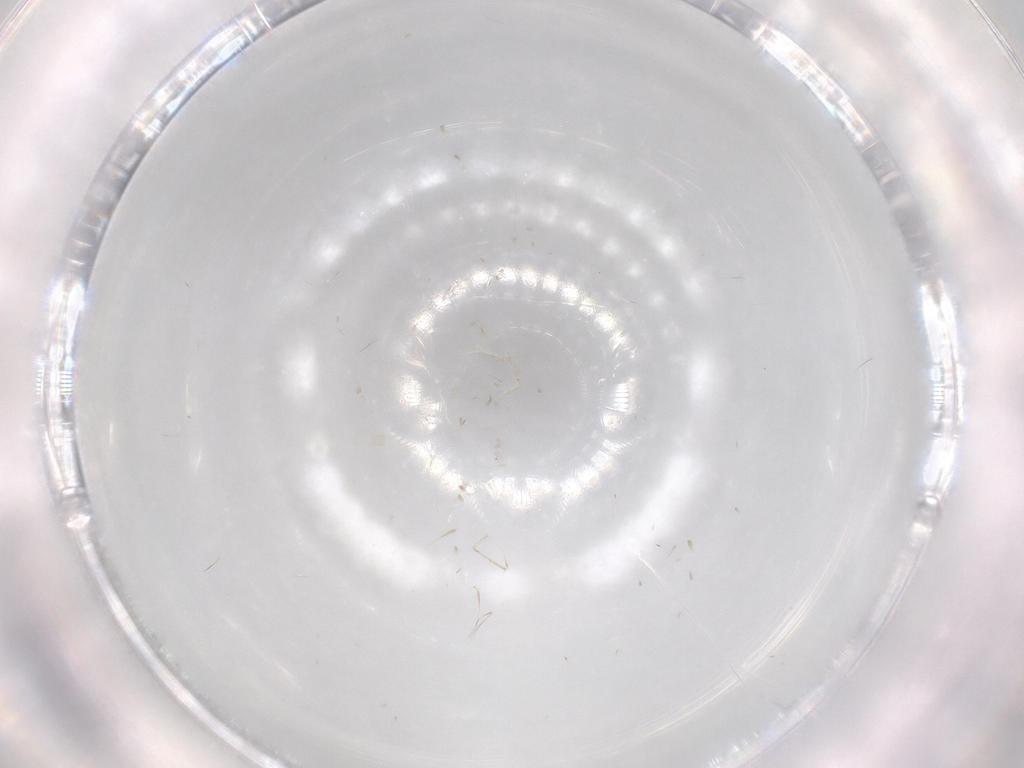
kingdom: Animalia
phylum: Arthropoda
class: Insecta
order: Diptera
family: Cecidomyiidae
